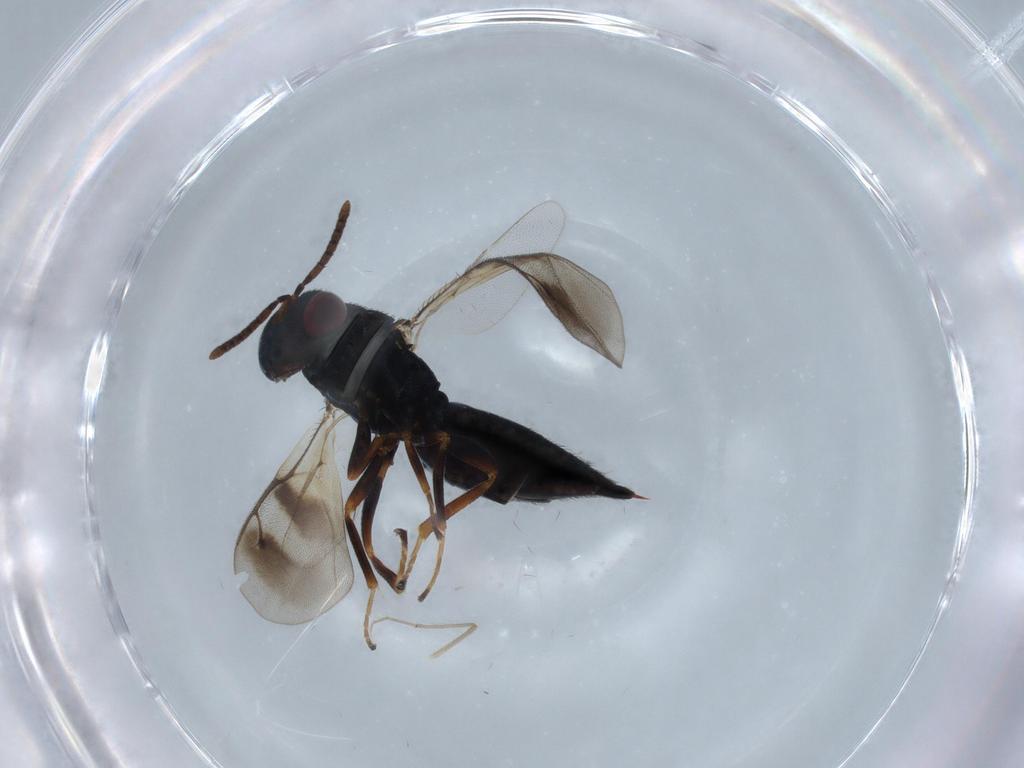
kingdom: Animalia
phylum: Arthropoda
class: Insecta
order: Hymenoptera
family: Pteromalidae
